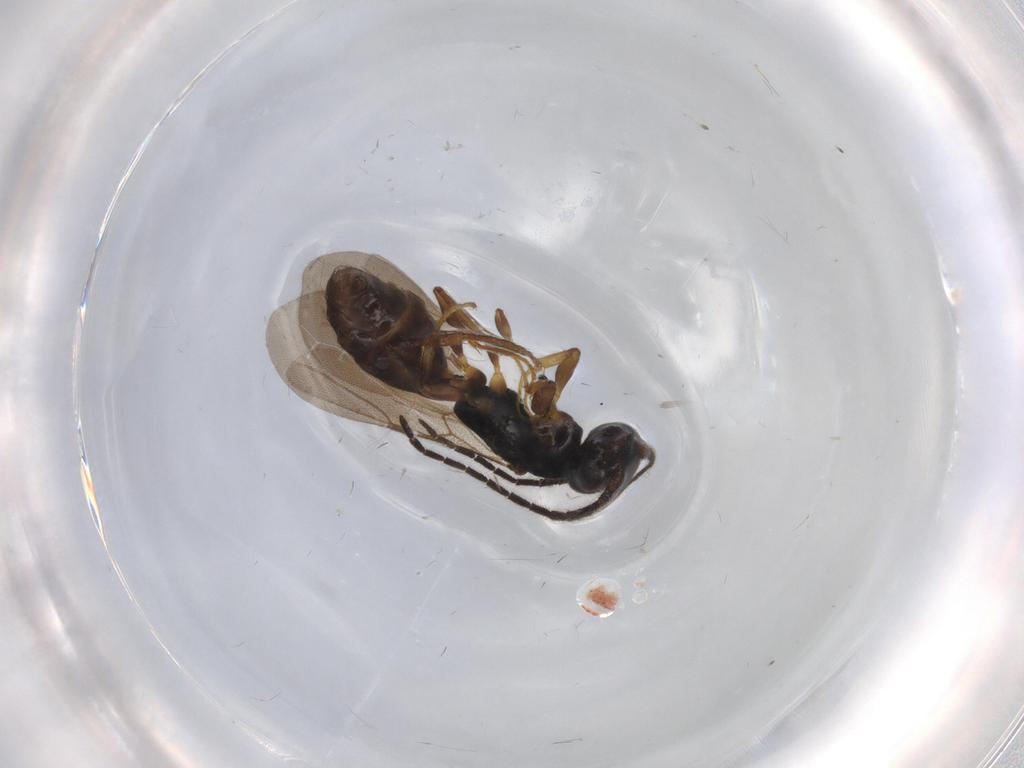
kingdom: Animalia
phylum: Arthropoda
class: Insecta
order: Hymenoptera
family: Bethylidae
